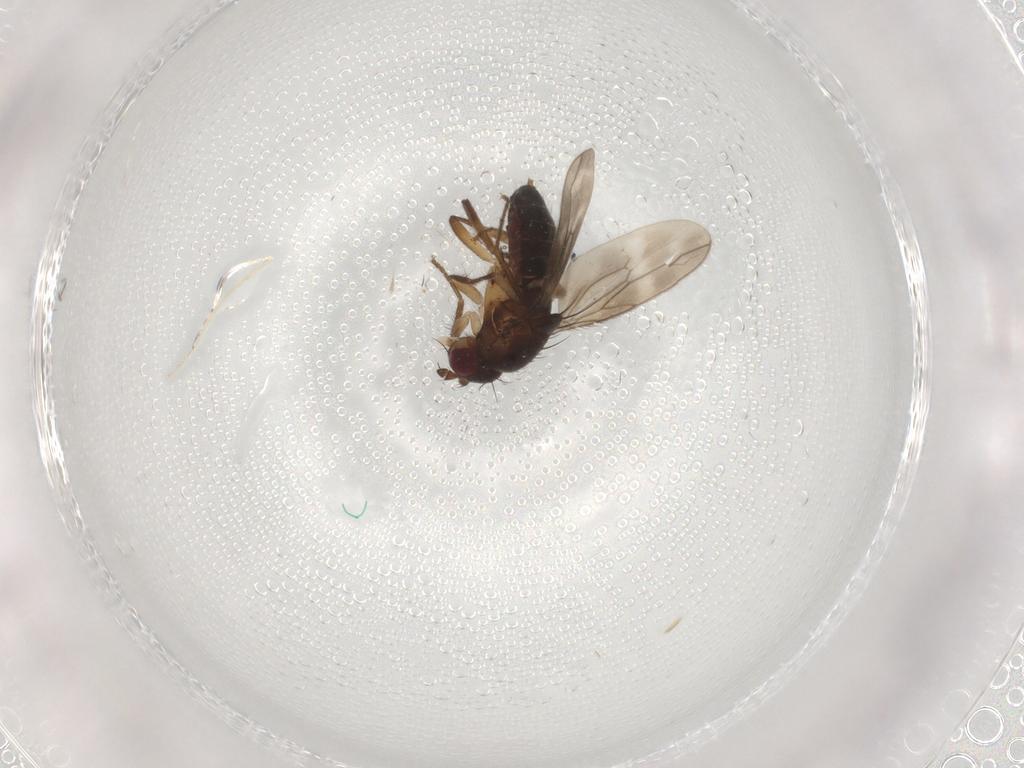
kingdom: Animalia
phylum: Arthropoda
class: Insecta
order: Diptera
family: Sphaeroceridae
